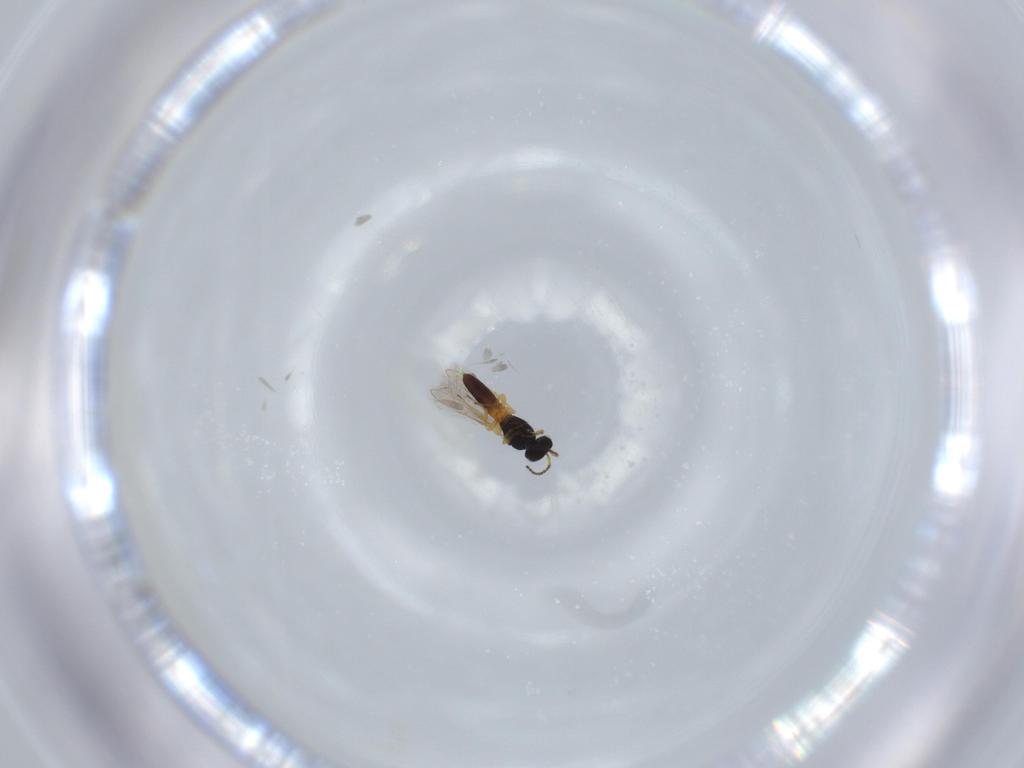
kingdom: Animalia
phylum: Arthropoda
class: Insecta
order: Hymenoptera
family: Scelionidae
